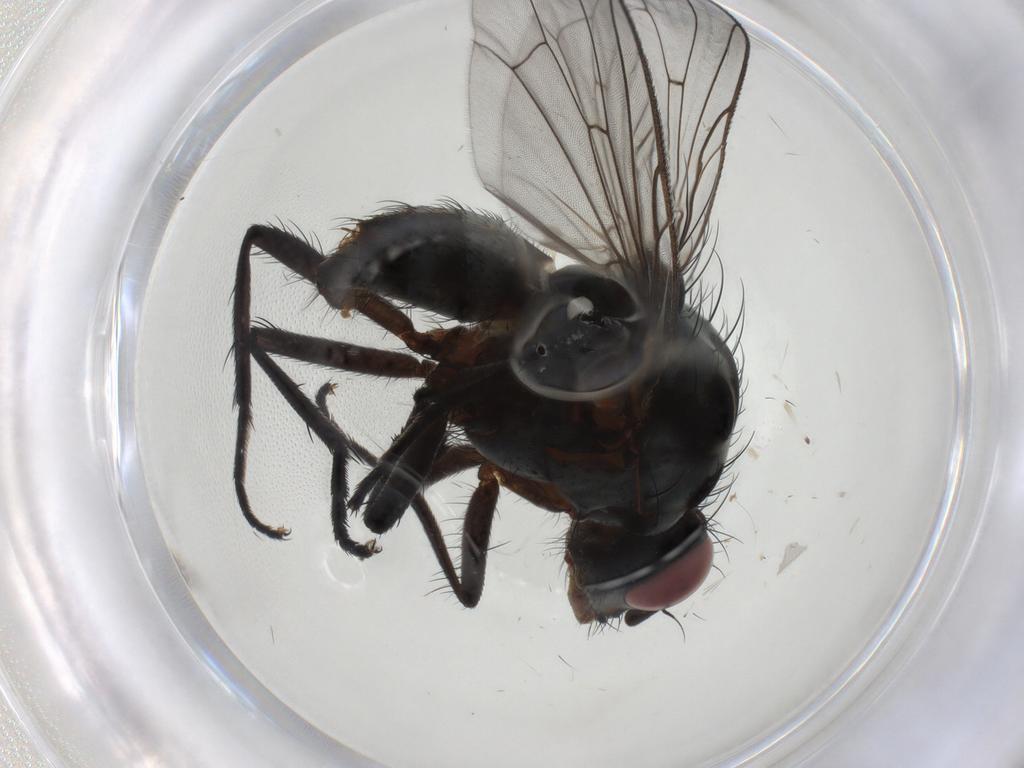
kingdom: Animalia
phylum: Arthropoda
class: Insecta
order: Diptera
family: Anthomyiidae
